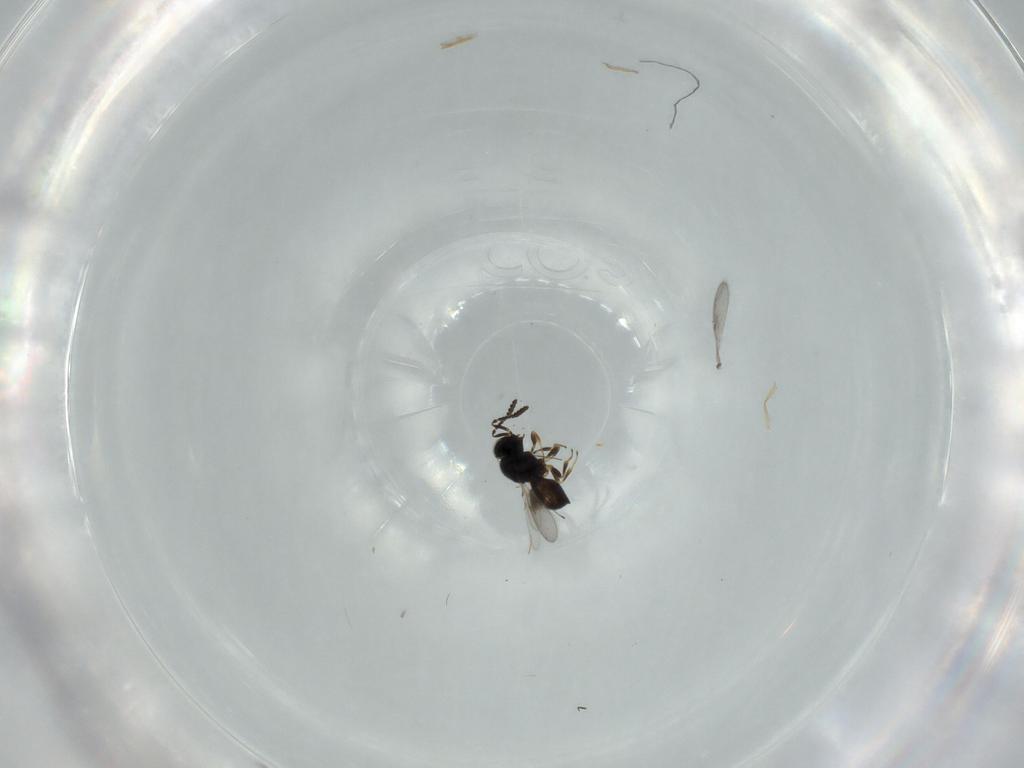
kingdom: Animalia
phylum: Arthropoda
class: Insecta
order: Hymenoptera
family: Scelionidae
